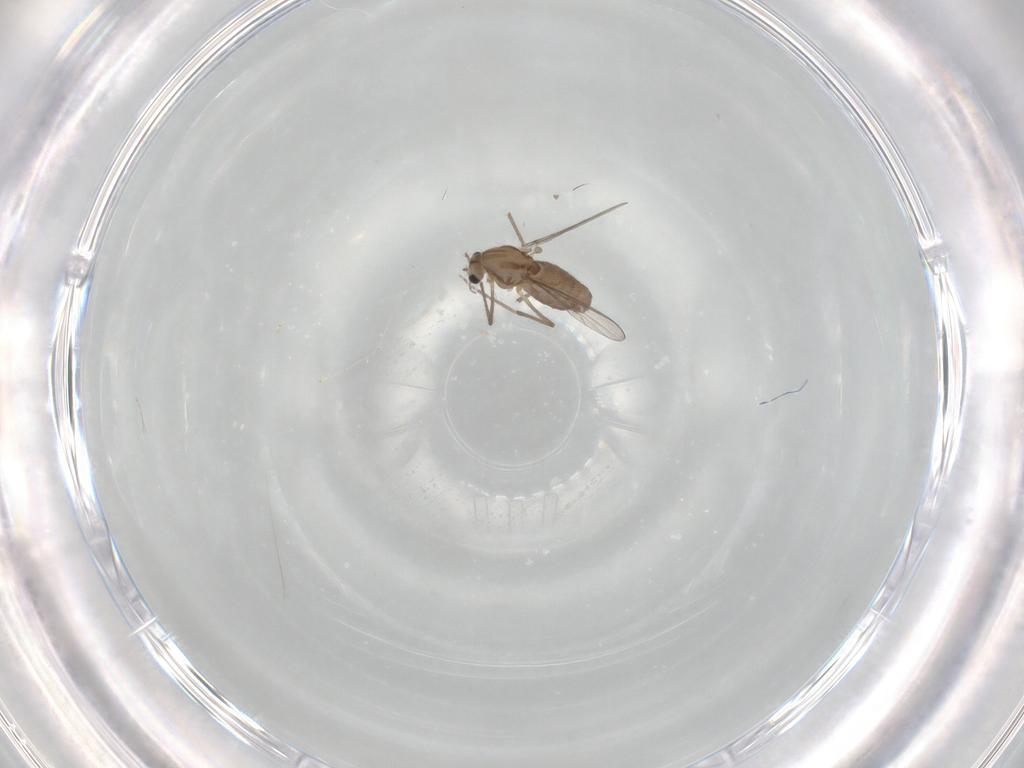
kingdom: Animalia
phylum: Arthropoda
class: Insecta
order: Diptera
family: Chironomidae
